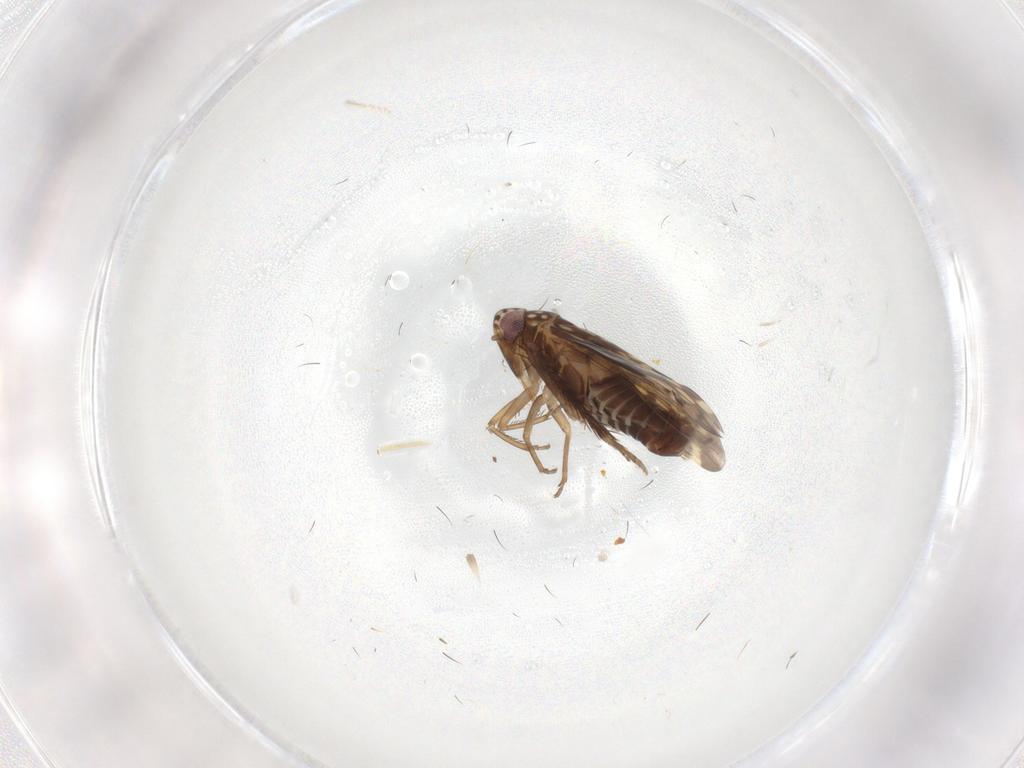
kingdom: Animalia
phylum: Arthropoda
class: Insecta
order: Hemiptera
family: Cicadellidae
